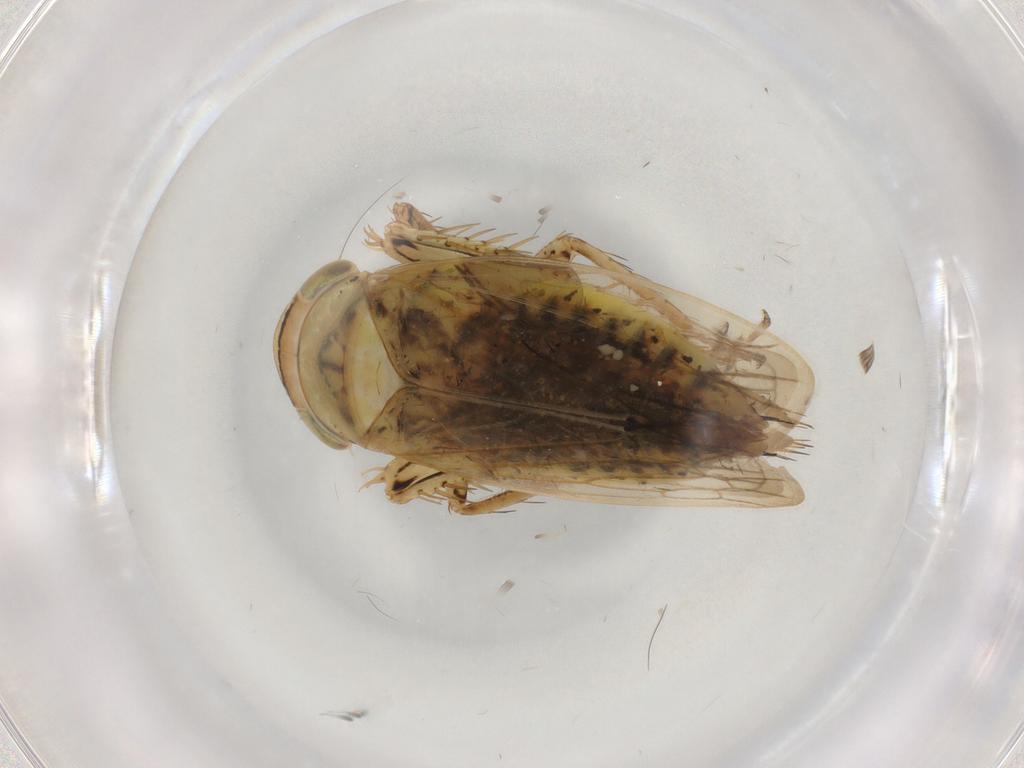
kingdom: Animalia
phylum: Arthropoda
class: Insecta
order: Hemiptera
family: Cicadellidae
